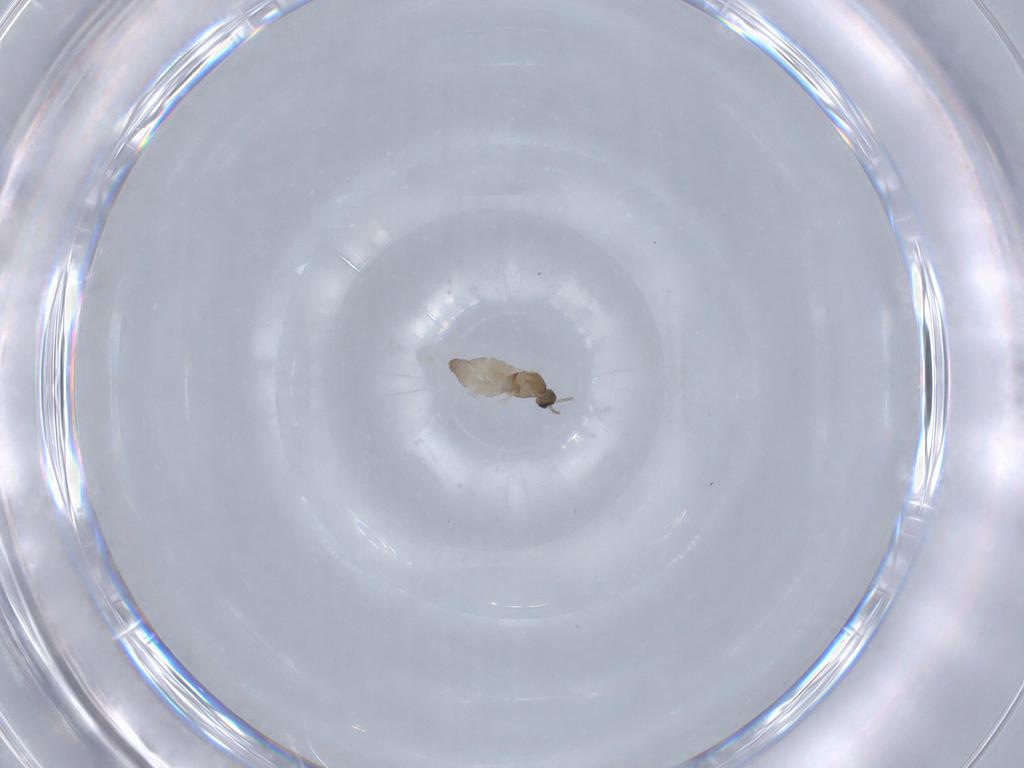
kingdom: Animalia
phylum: Arthropoda
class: Insecta
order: Diptera
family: Cecidomyiidae
